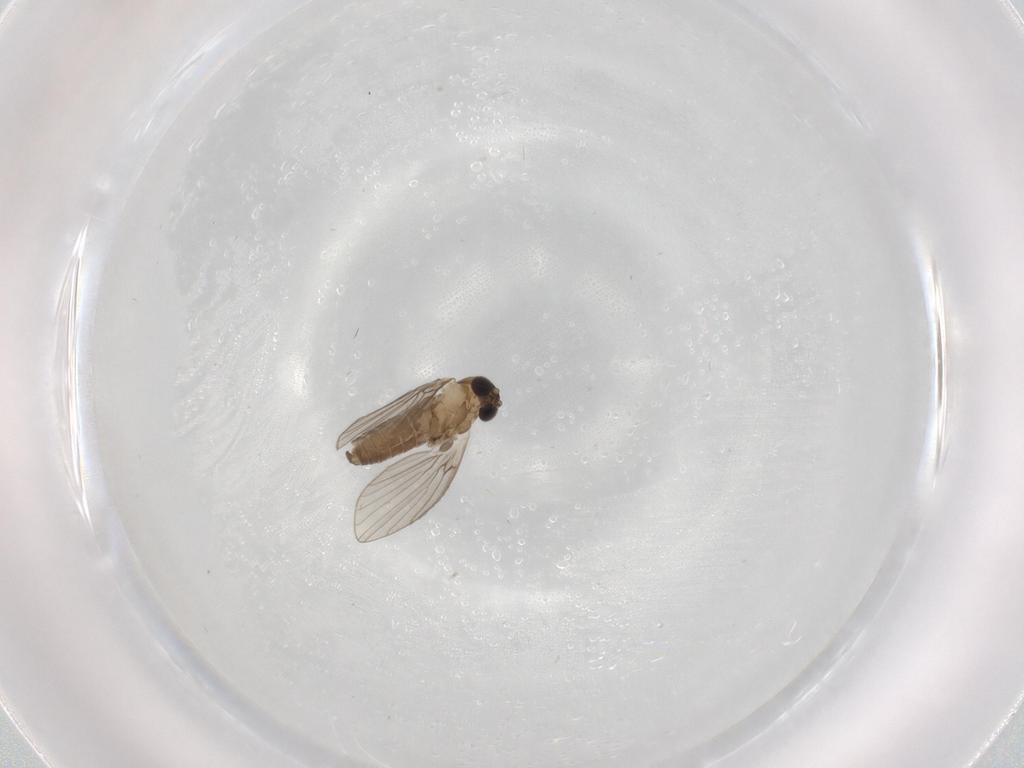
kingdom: Animalia
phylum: Arthropoda
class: Insecta
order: Diptera
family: Psychodidae
